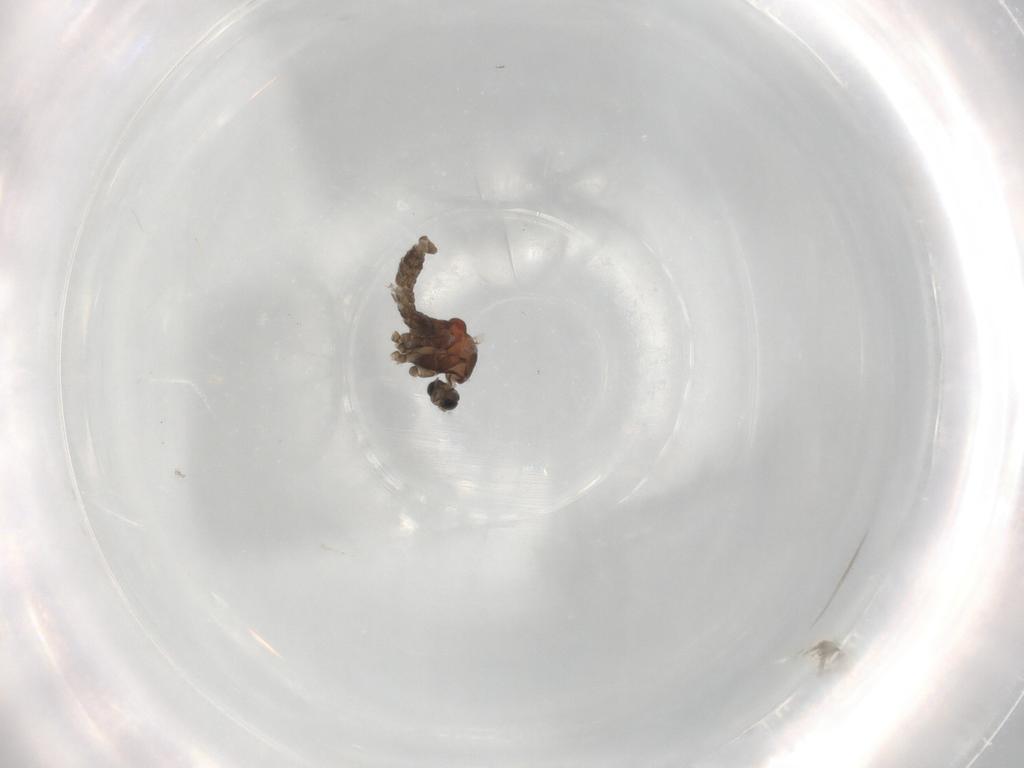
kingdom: Animalia
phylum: Arthropoda
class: Insecta
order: Diptera
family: Cecidomyiidae
